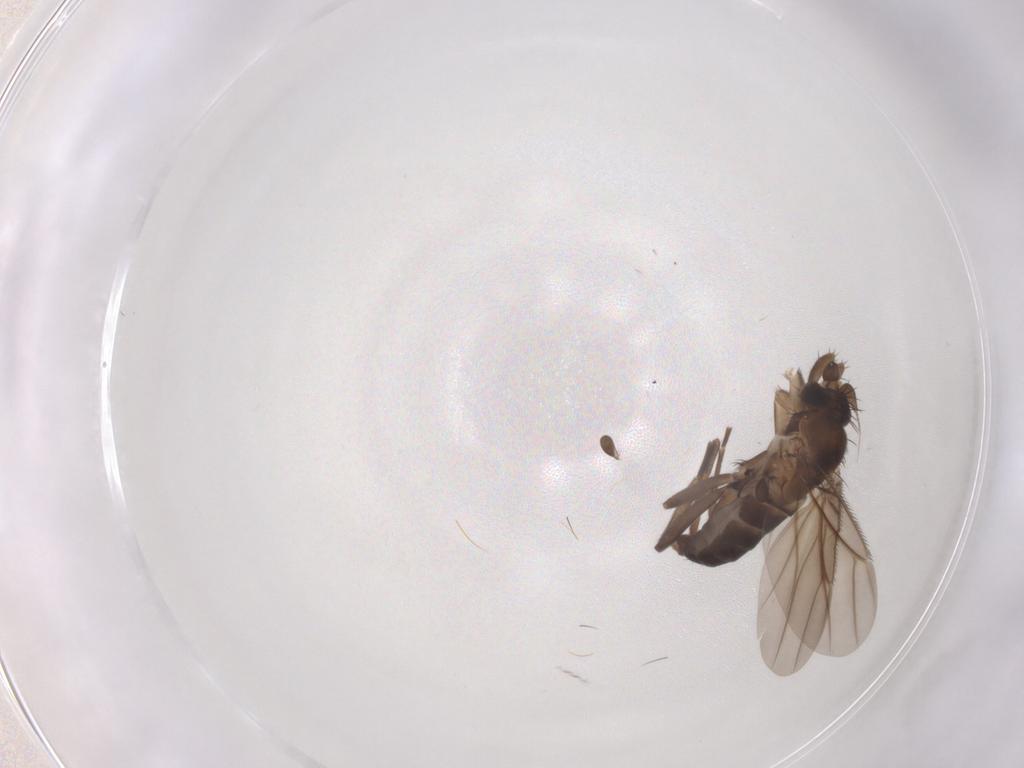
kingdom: Animalia
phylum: Arthropoda
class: Insecta
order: Diptera
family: Phoridae
